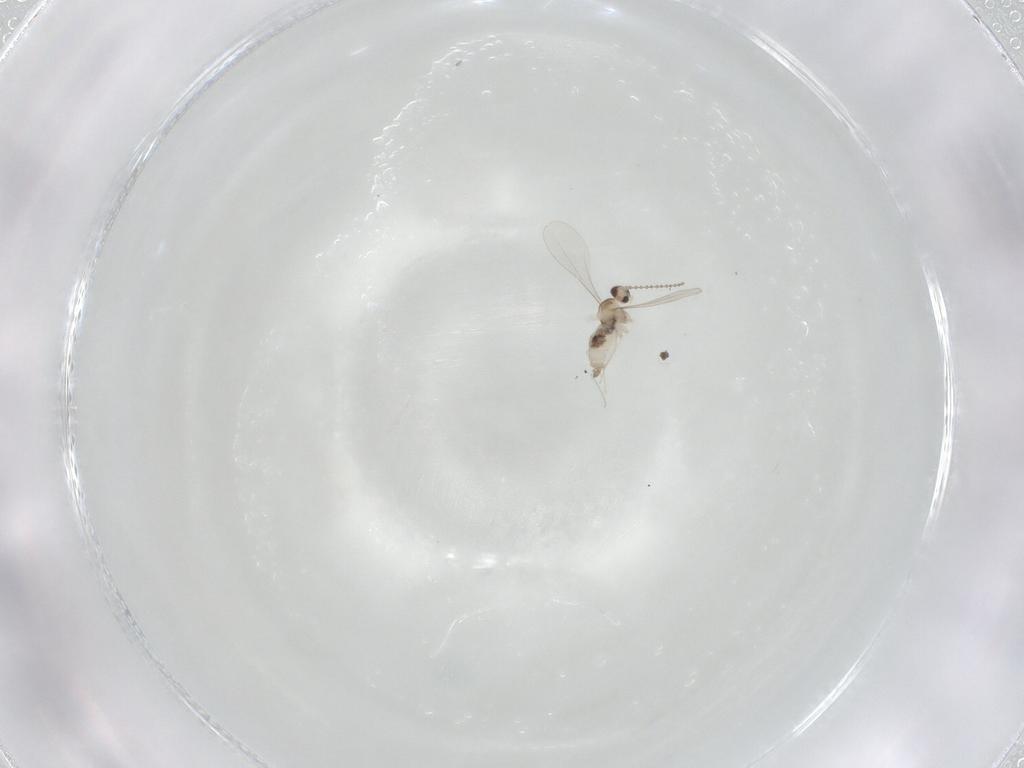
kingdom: Animalia
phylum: Arthropoda
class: Insecta
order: Diptera
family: Cecidomyiidae
